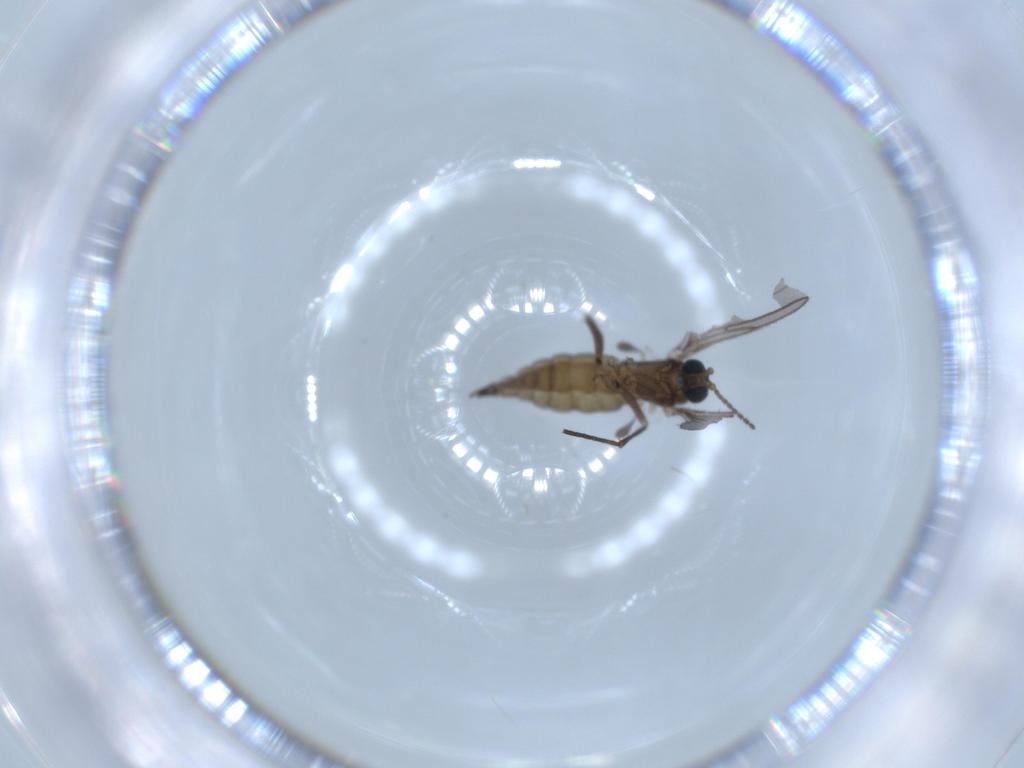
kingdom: Animalia
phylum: Arthropoda
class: Insecta
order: Diptera
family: Sciaridae
